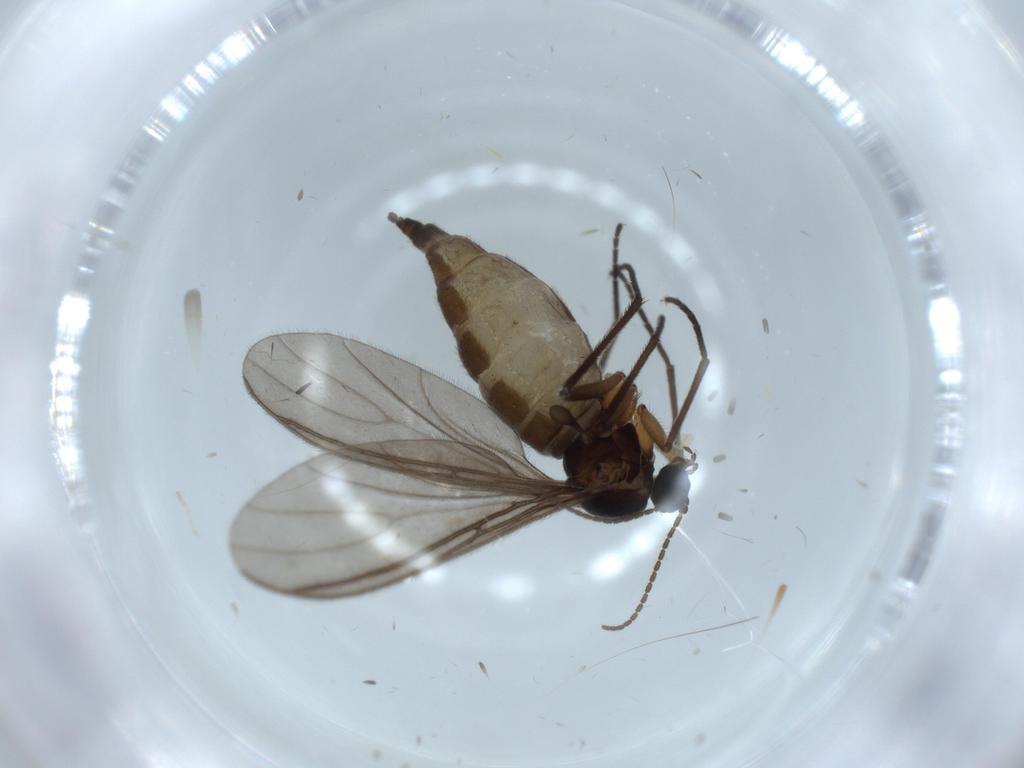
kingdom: Animalia
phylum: Arthropoda
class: Insecta
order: Diptera
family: Sciaridae
